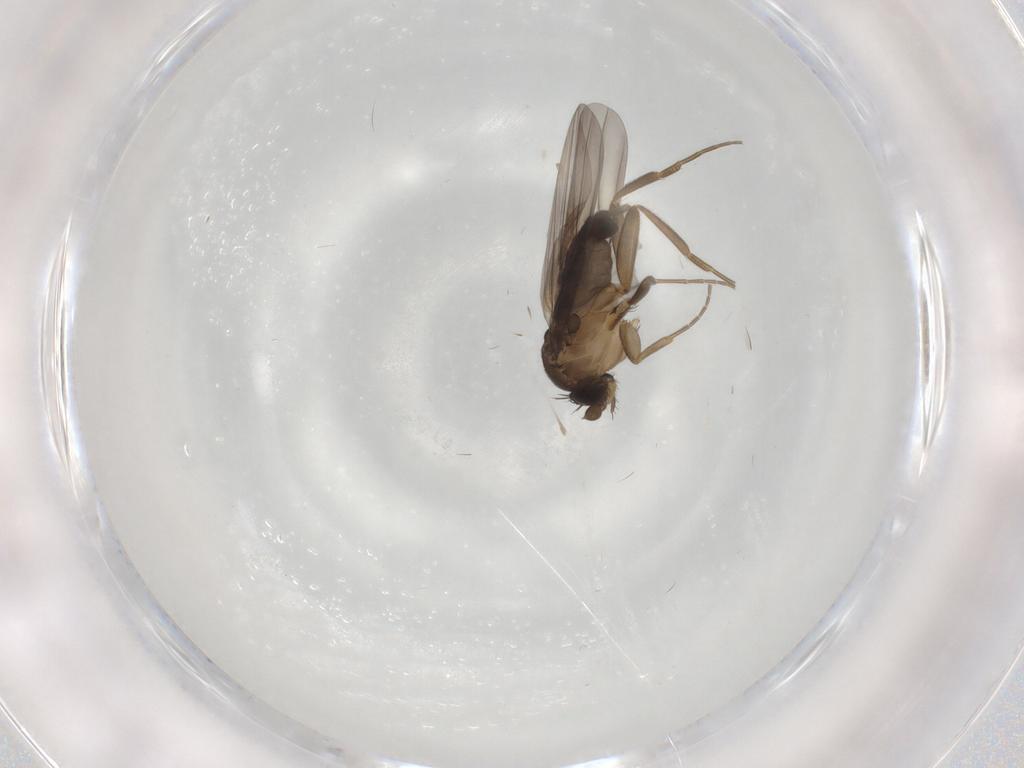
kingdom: Animalia
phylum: Arthropoda
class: Insecta
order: Diptera
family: Phoridae
